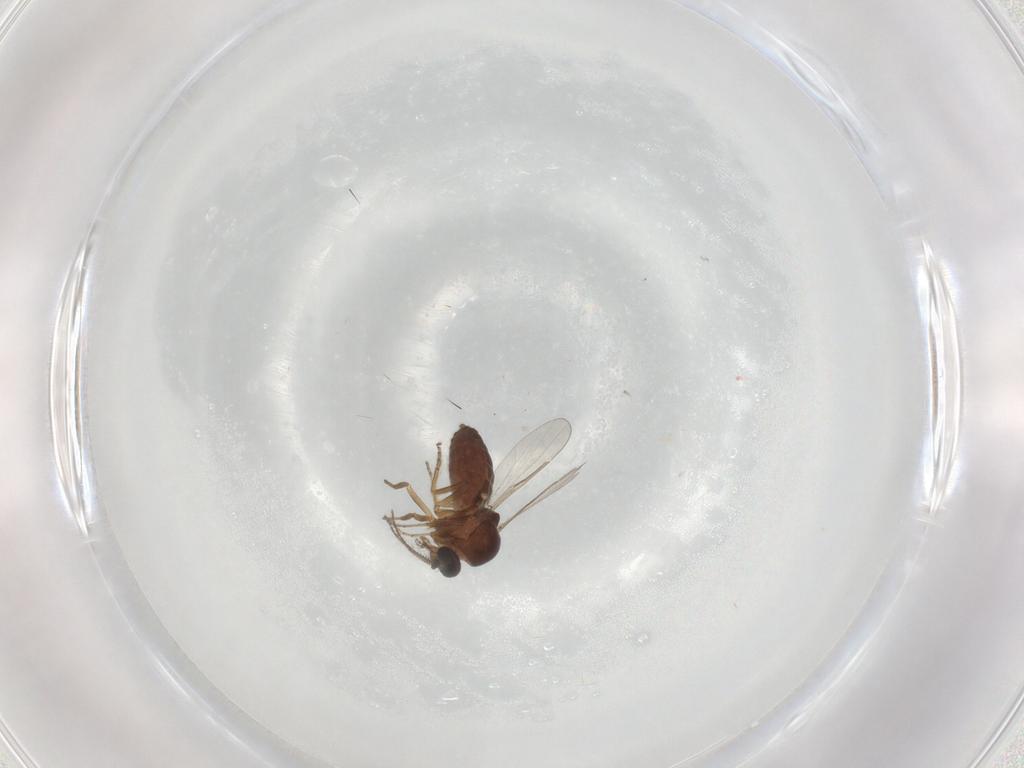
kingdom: Animalia
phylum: Arthropoda
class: Insecta
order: Diptera
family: Ceratopogonidae
